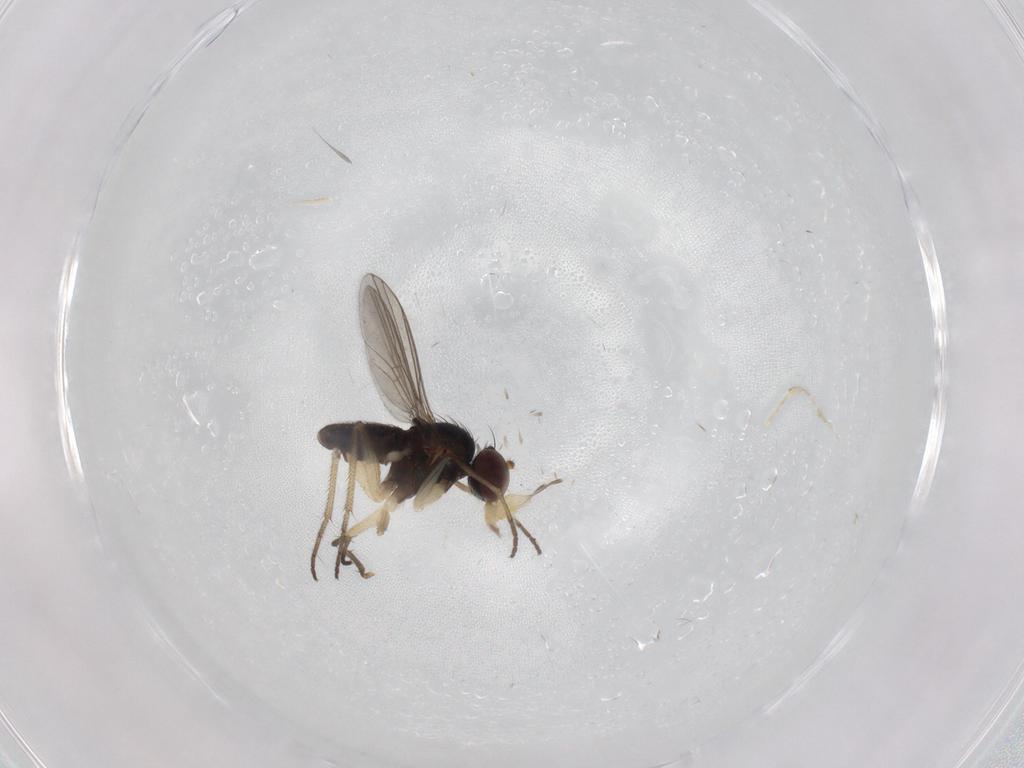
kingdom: Animalia
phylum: Arthropoda
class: Insecta
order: Diptera
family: Dolichopodidae
